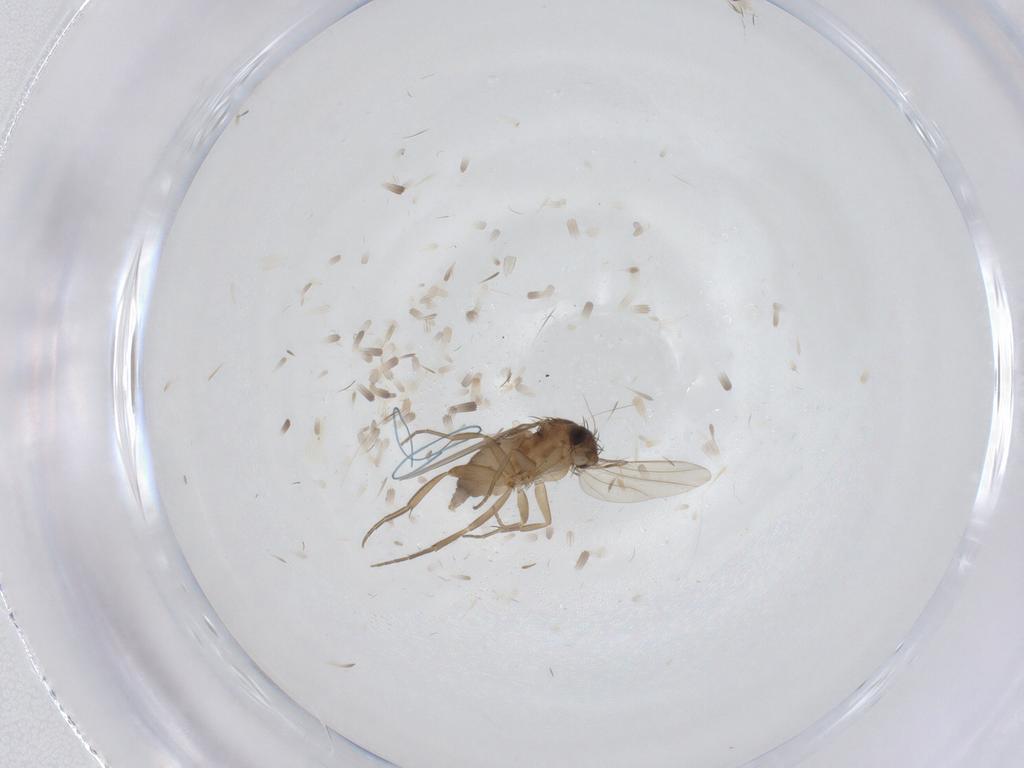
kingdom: Animalia
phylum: Arthropoda
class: Insecta
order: Diptera
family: Phoridae
